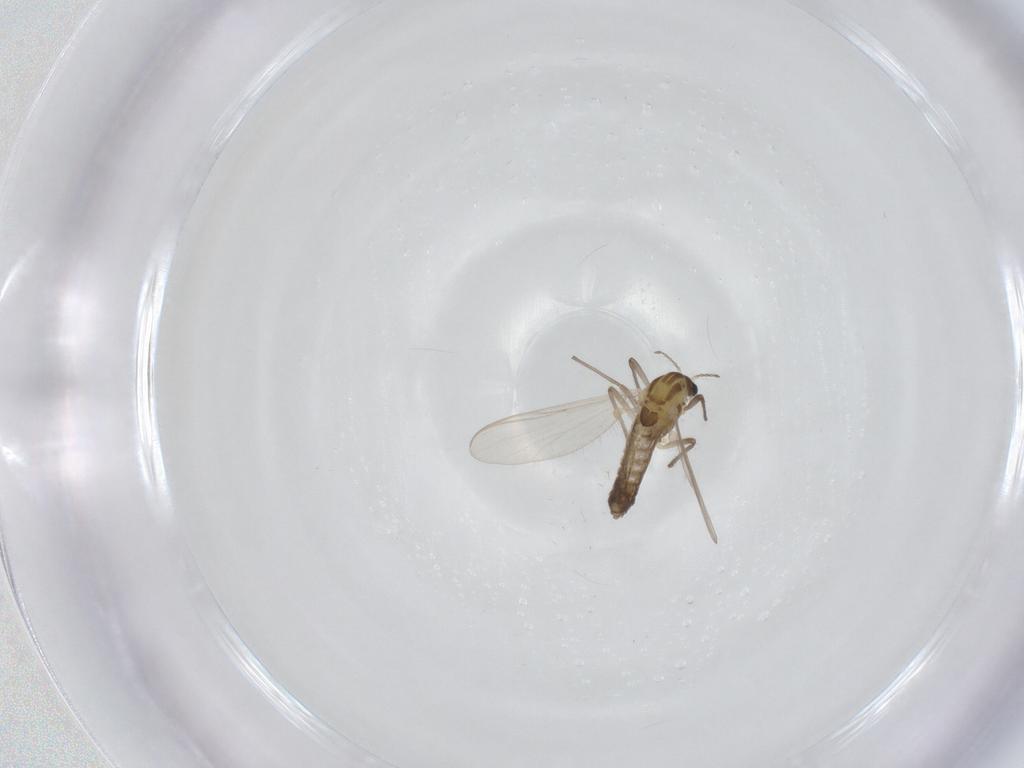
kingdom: Animalia
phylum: Arthropoda
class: Insecta
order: Diptera
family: Chironomidae
